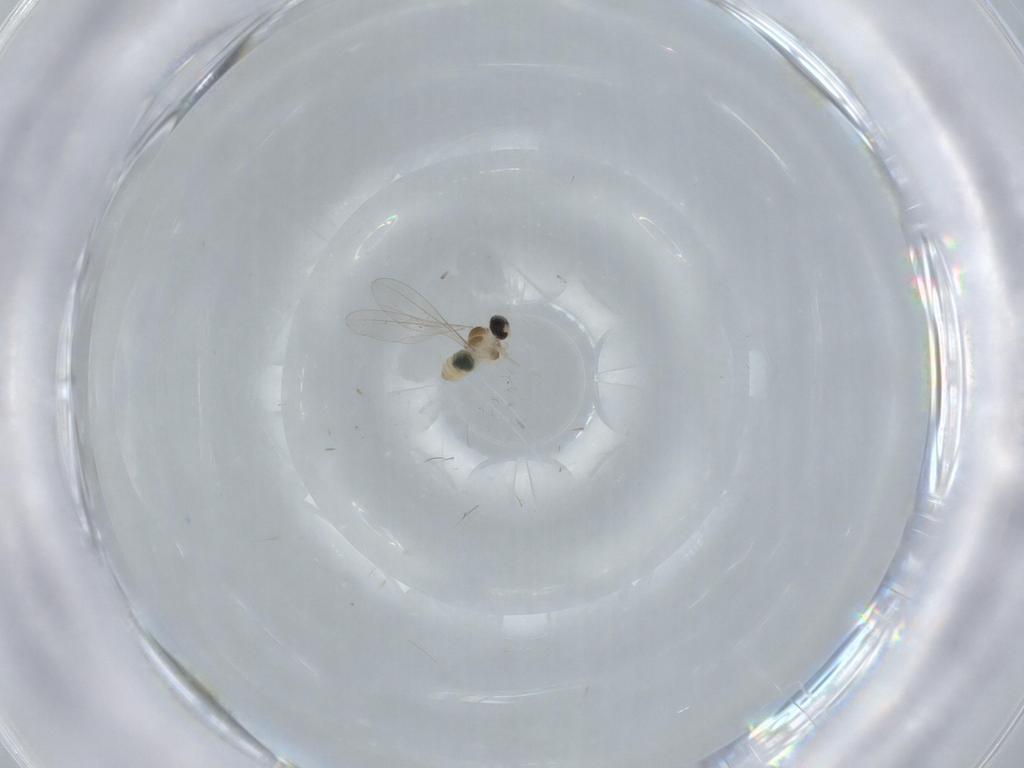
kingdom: Animalia
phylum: Arthropoda
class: Insecta
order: Diptera
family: Cecidomyiidae
